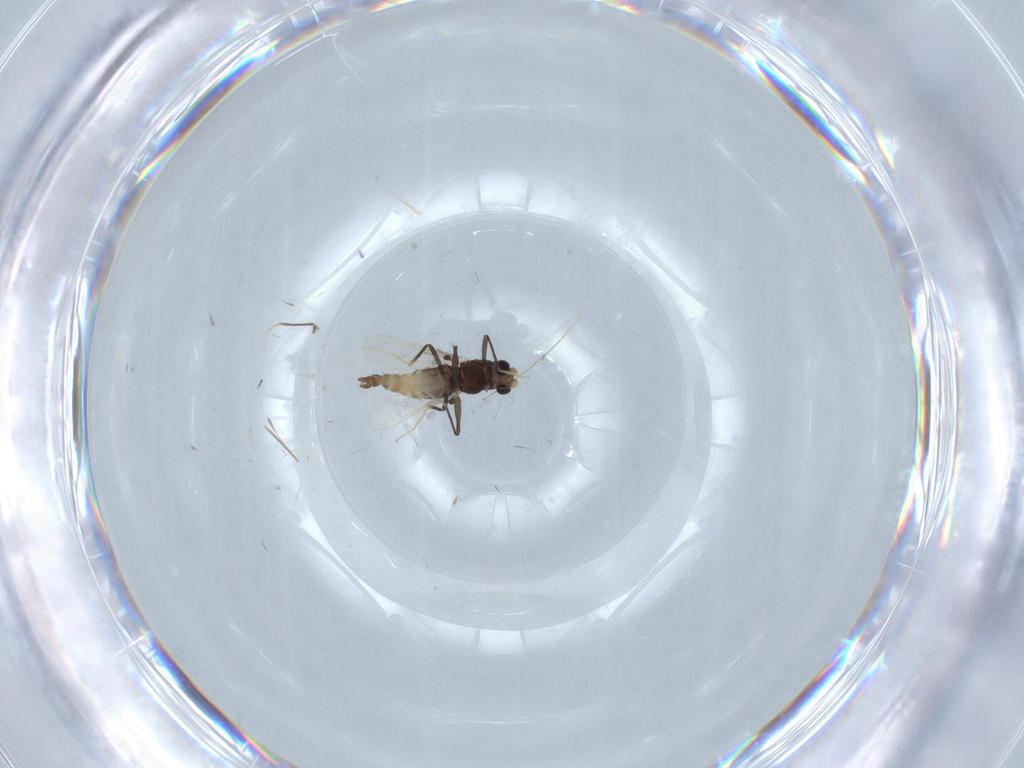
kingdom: Animalia
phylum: Arthropoda
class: Insecta
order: Diptera
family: Chironomidae
